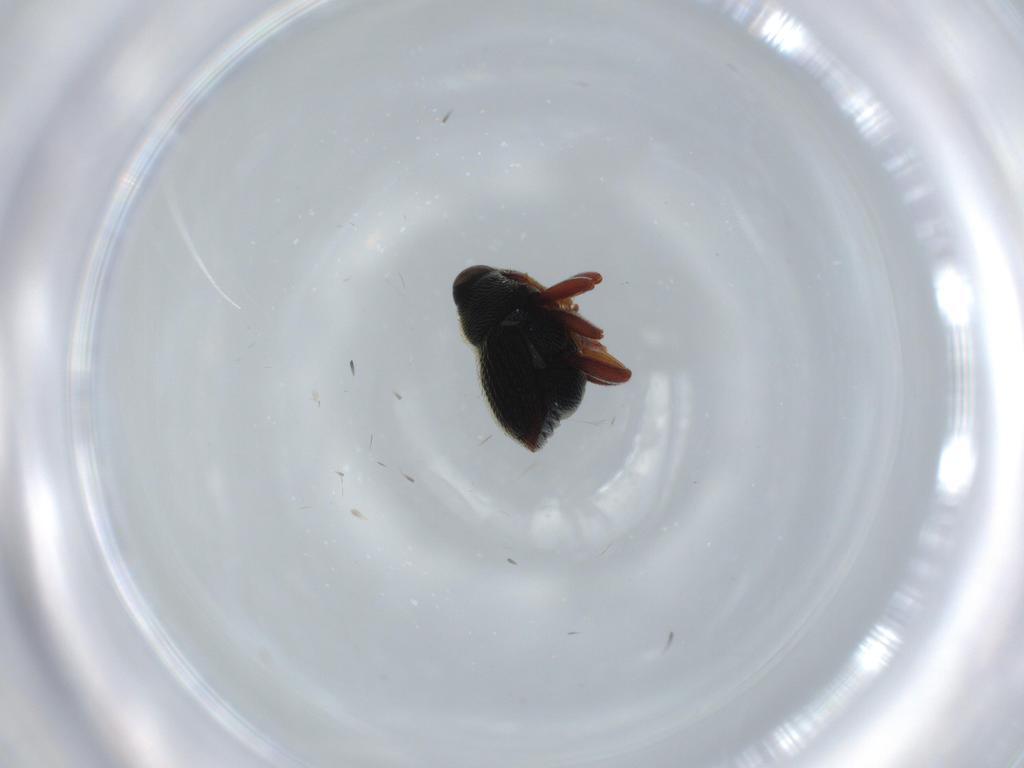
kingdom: Animalia
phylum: Arthropoda
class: Insecta
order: Coleoptera
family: Chrysomelidae
